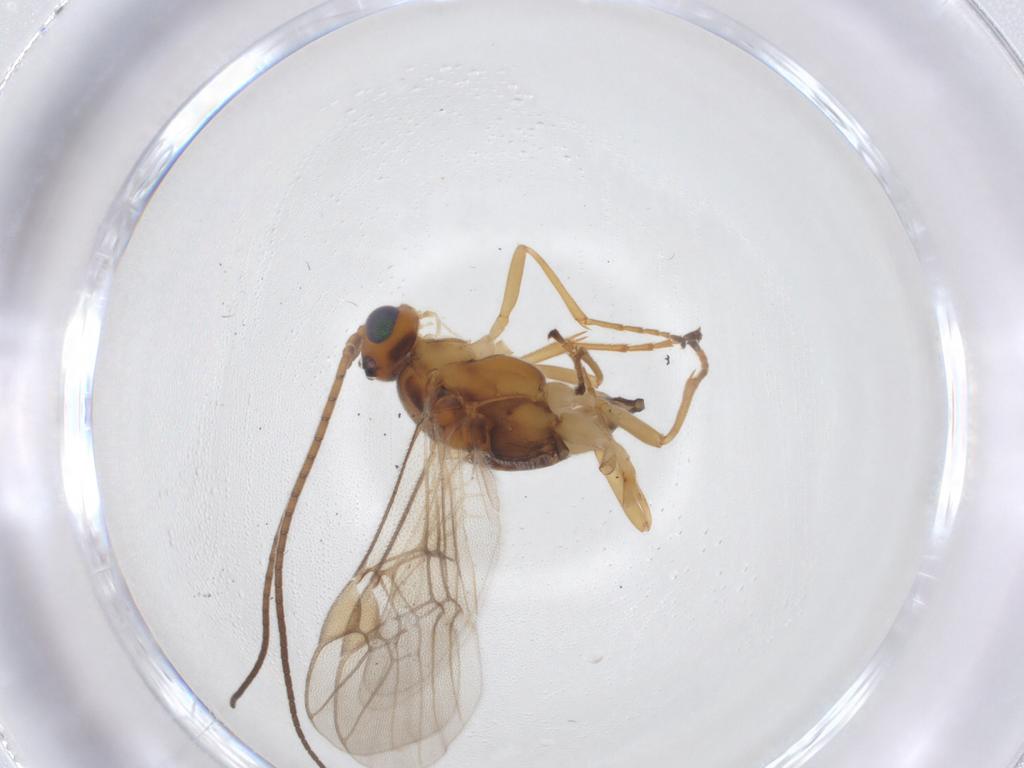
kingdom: Animalia
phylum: Arthropoda
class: Insecta
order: Hymenoptera
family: Braconidae
